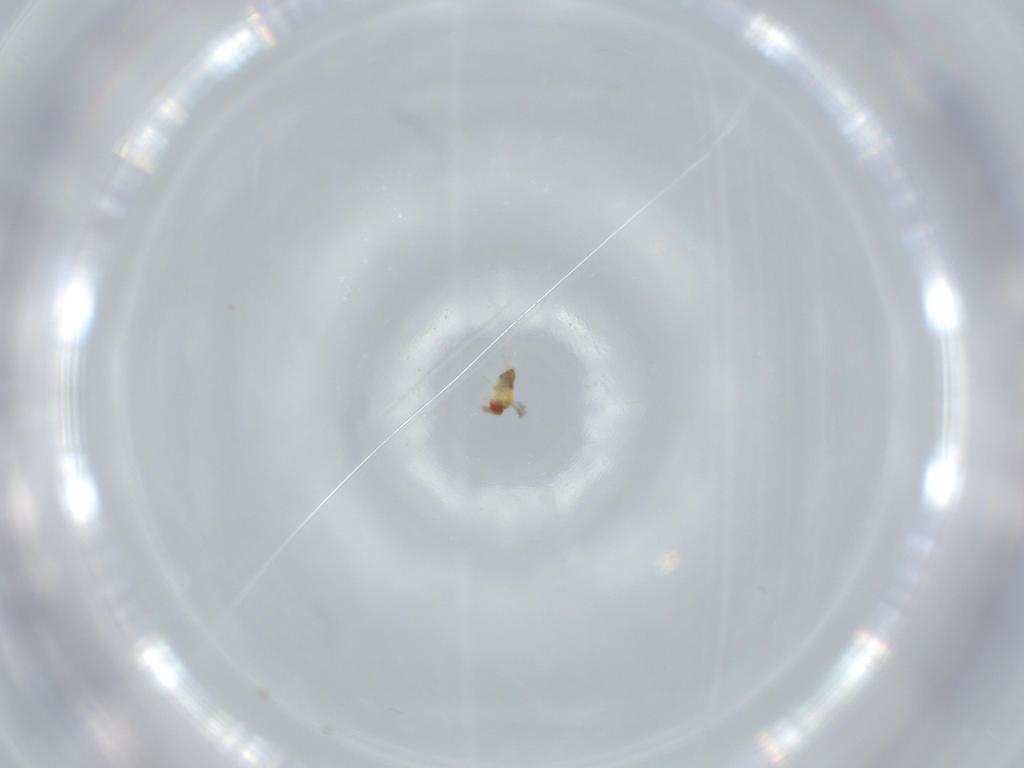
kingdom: Animalia
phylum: Arthropoda
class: Insecta
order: Hymenoptera
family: Trichogrammatidae
